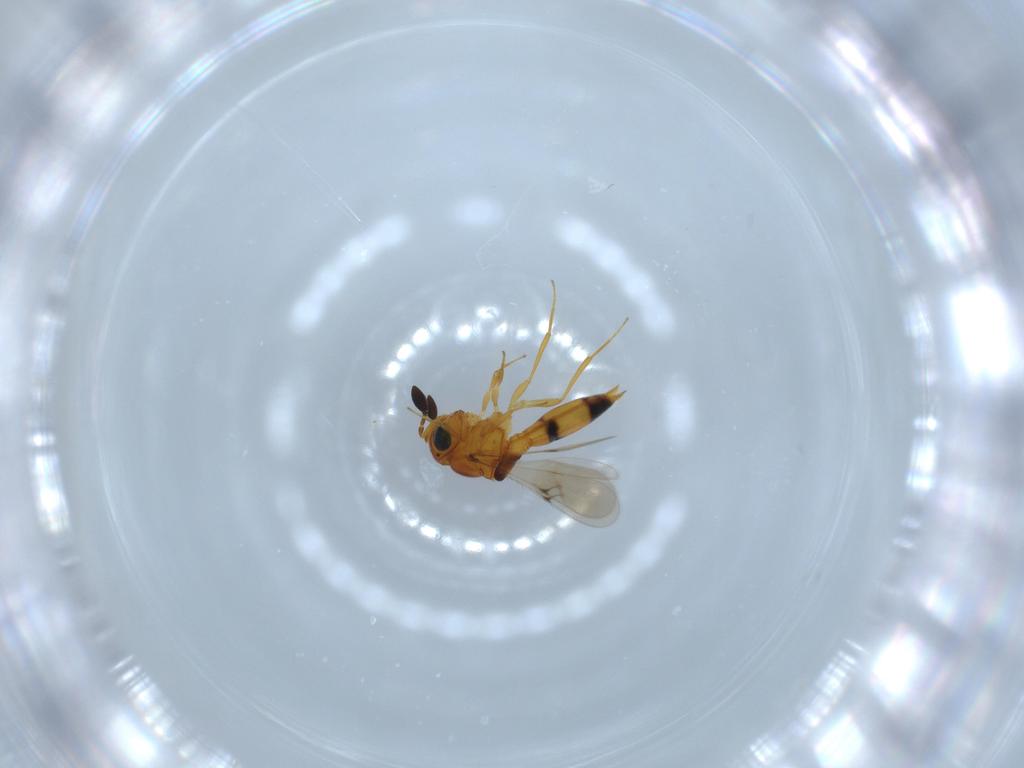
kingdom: Animalia
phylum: Arthropoda
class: Insecta
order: Hymenoptera
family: Scelionidae
